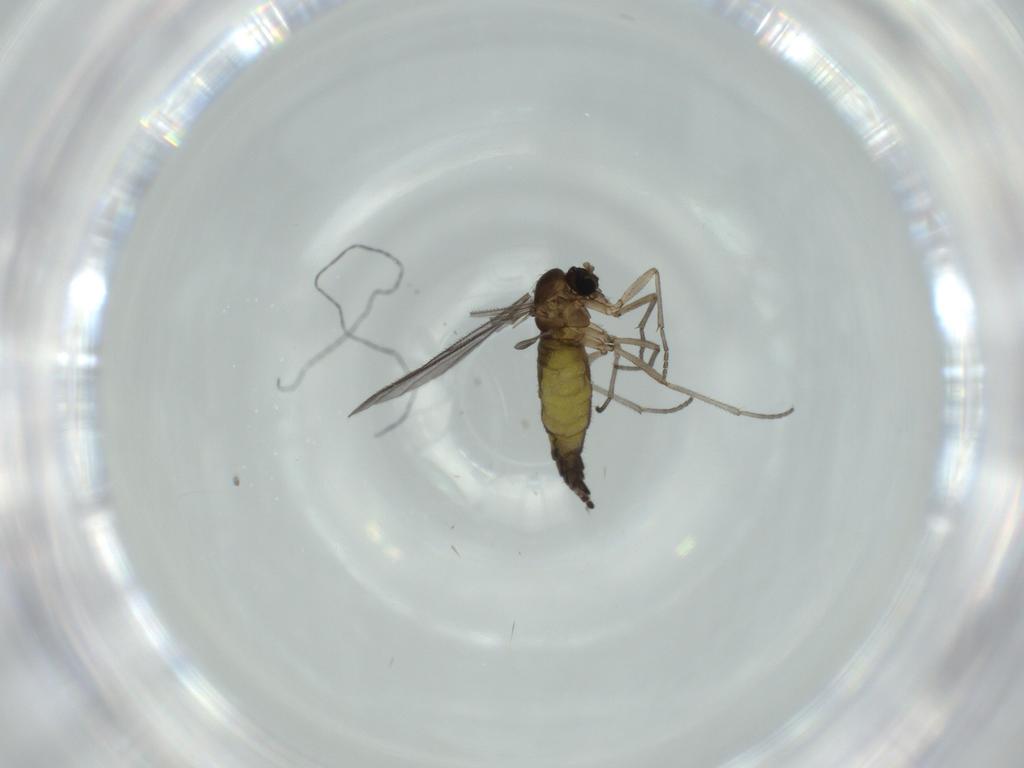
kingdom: Animalia
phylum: Arthropoda
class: Insecta
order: Diptera
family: Sciaridae
